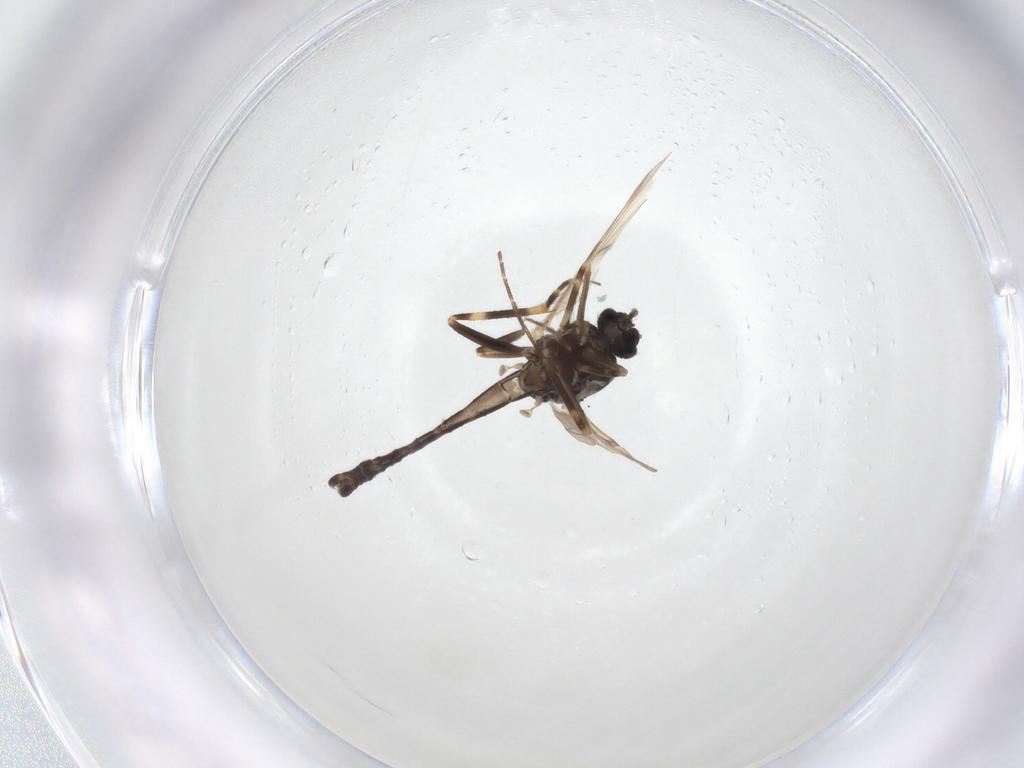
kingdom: Animalia
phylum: Arthropoda
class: Insecta
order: Diptera
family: Ceratopogonidae
